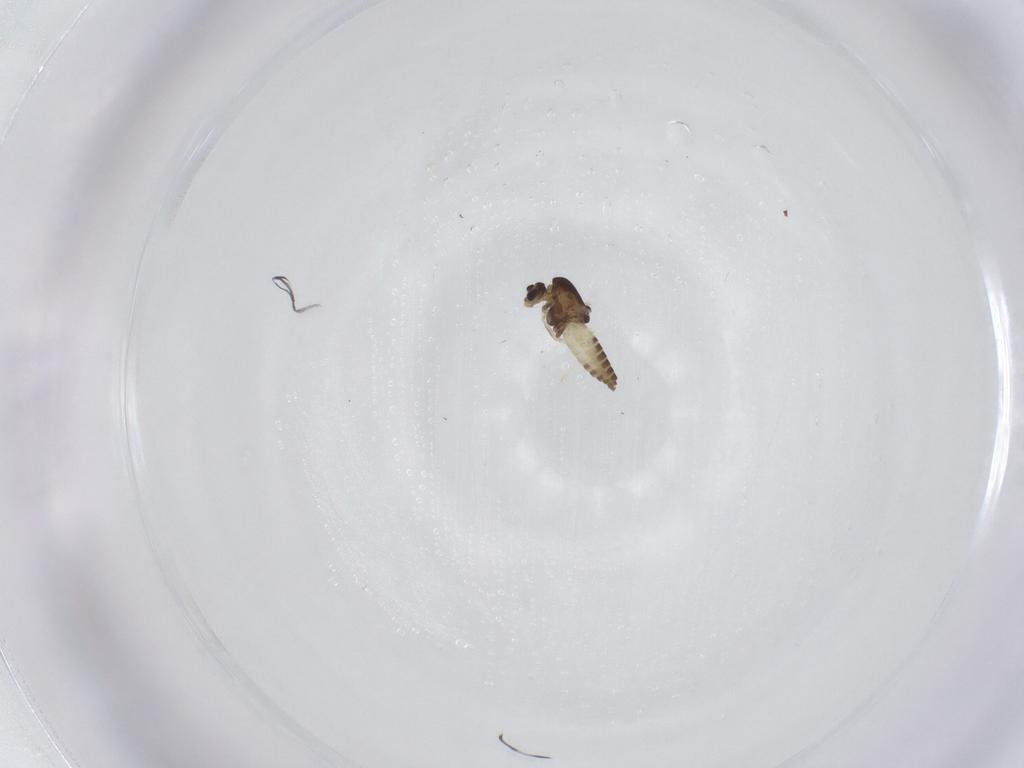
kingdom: Animalia
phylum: Arthropoda
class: Insecta
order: Diptera
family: Chironomidae
